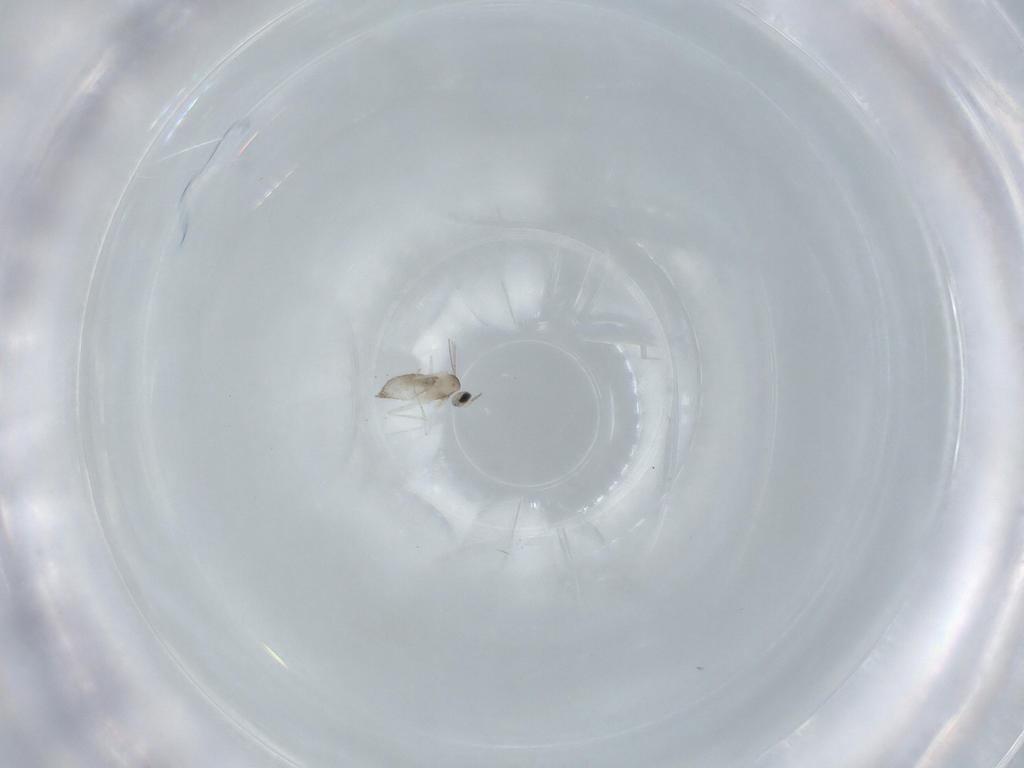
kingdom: Animalia
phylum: Arthropoda
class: Insecta
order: Diptera
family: Cecidomyiidae
